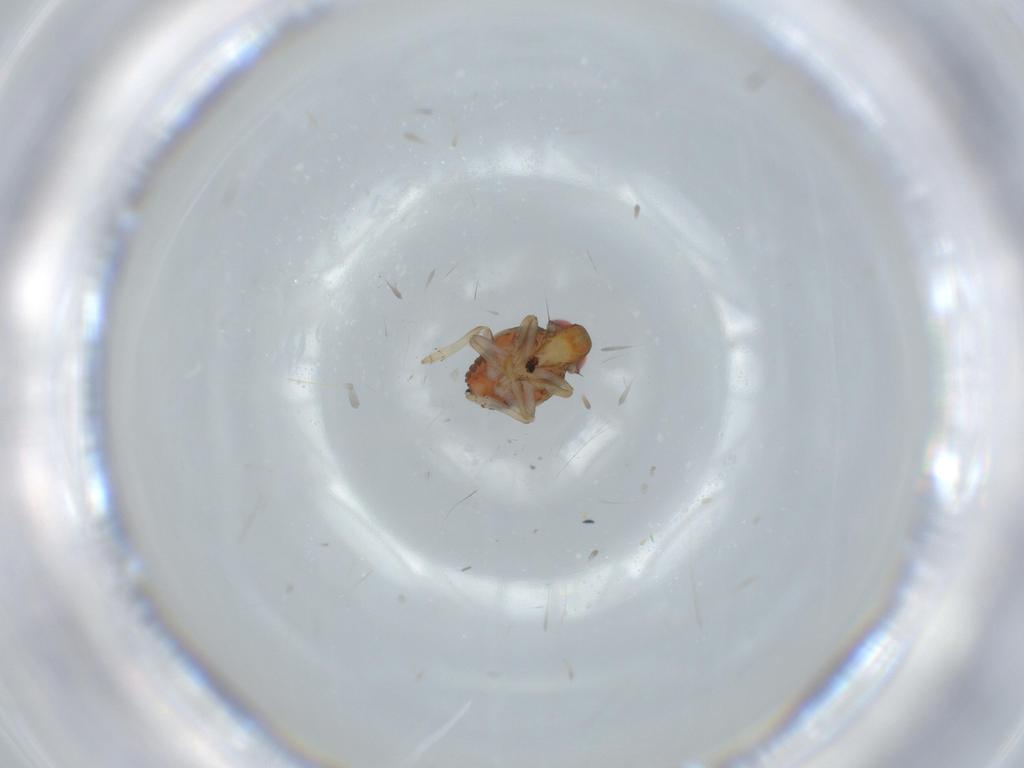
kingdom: Animalia
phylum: Arthropoda
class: Insecta
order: Hemiptera
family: Issidae
